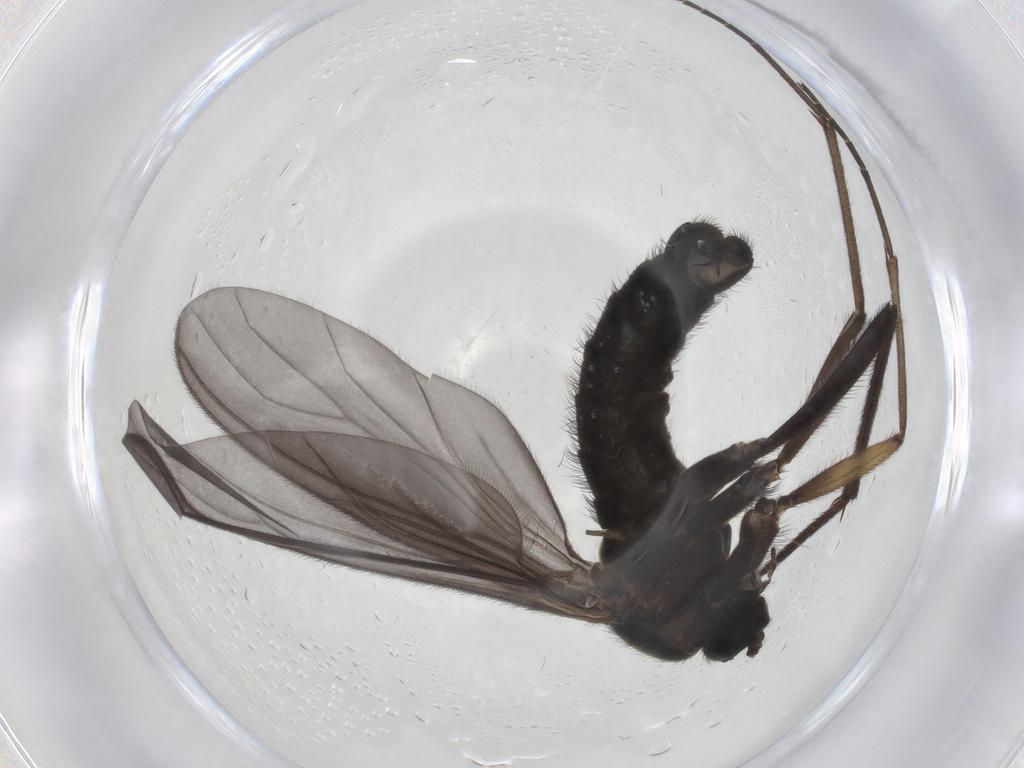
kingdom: Animalia
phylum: Arthropoda
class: Insecta
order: Diptera
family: Sciaridae
